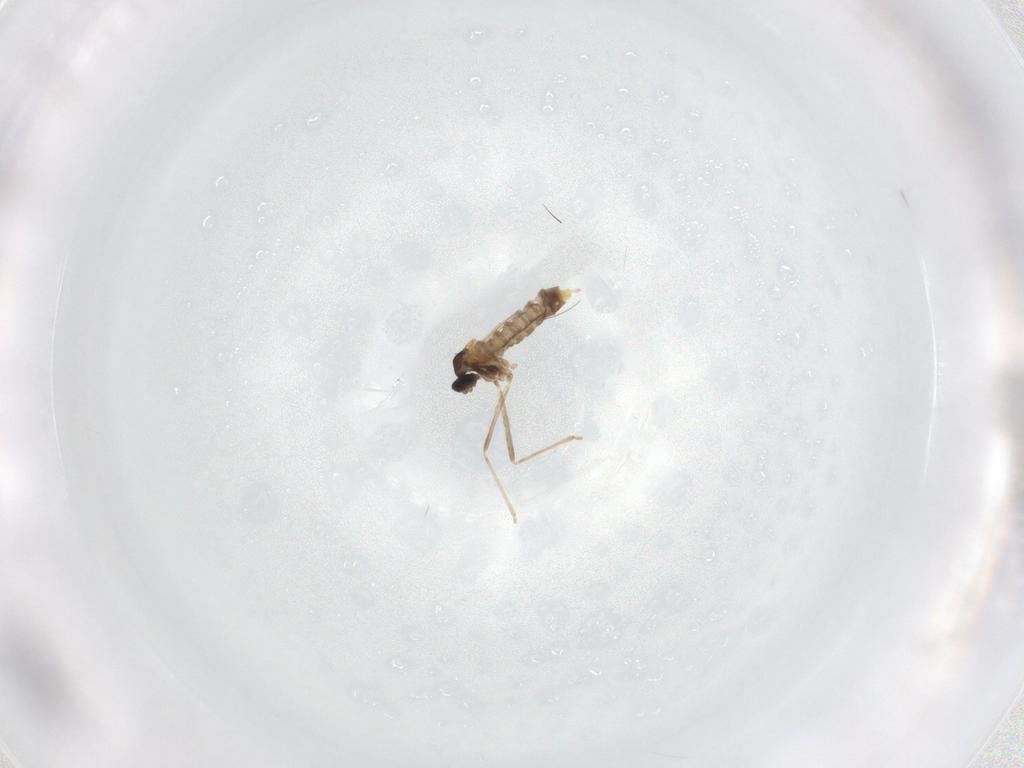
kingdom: Animalia
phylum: Arthropoda
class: Insecta
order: Diptera
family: Cecidomyiidae
